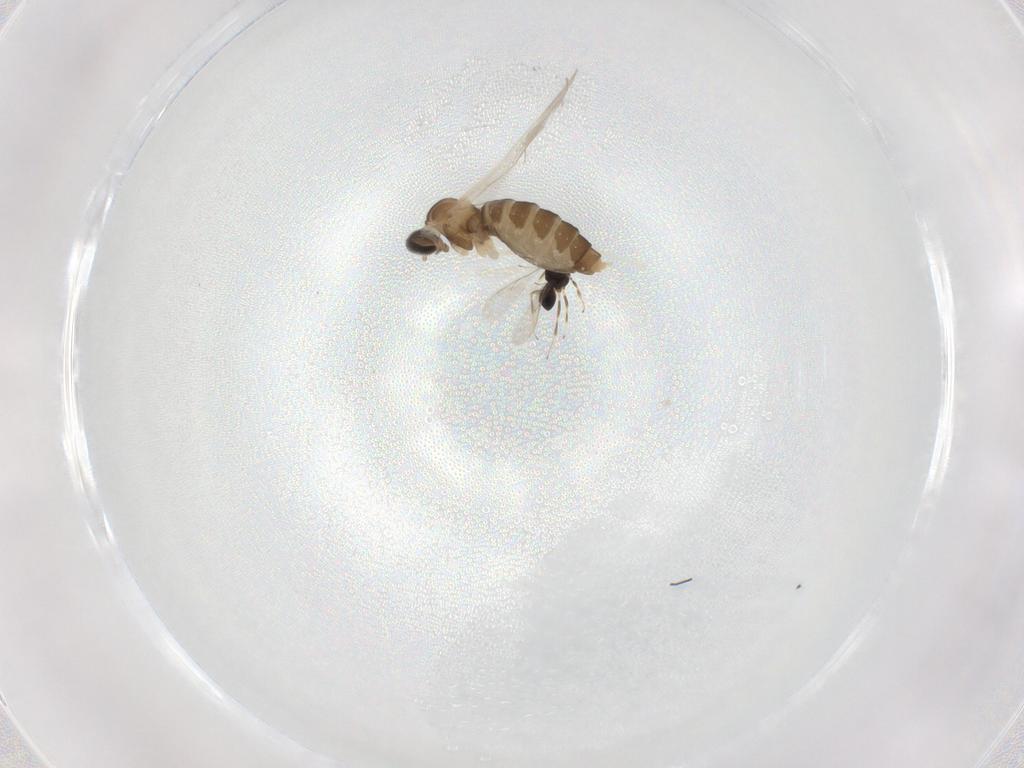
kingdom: Animalia
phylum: Arthropoda
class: Insecta
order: Hymenoptera
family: Scelionidae
